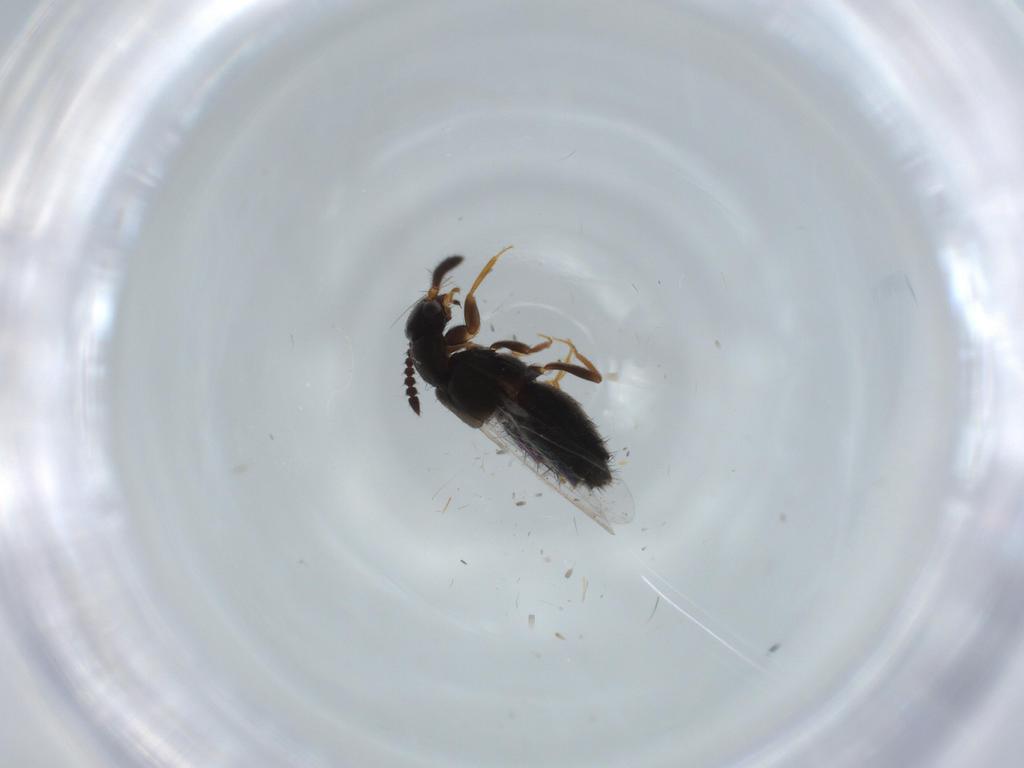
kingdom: Animalia
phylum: Arthropoda
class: Insecta
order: Coleoptera
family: Staphylinidae
